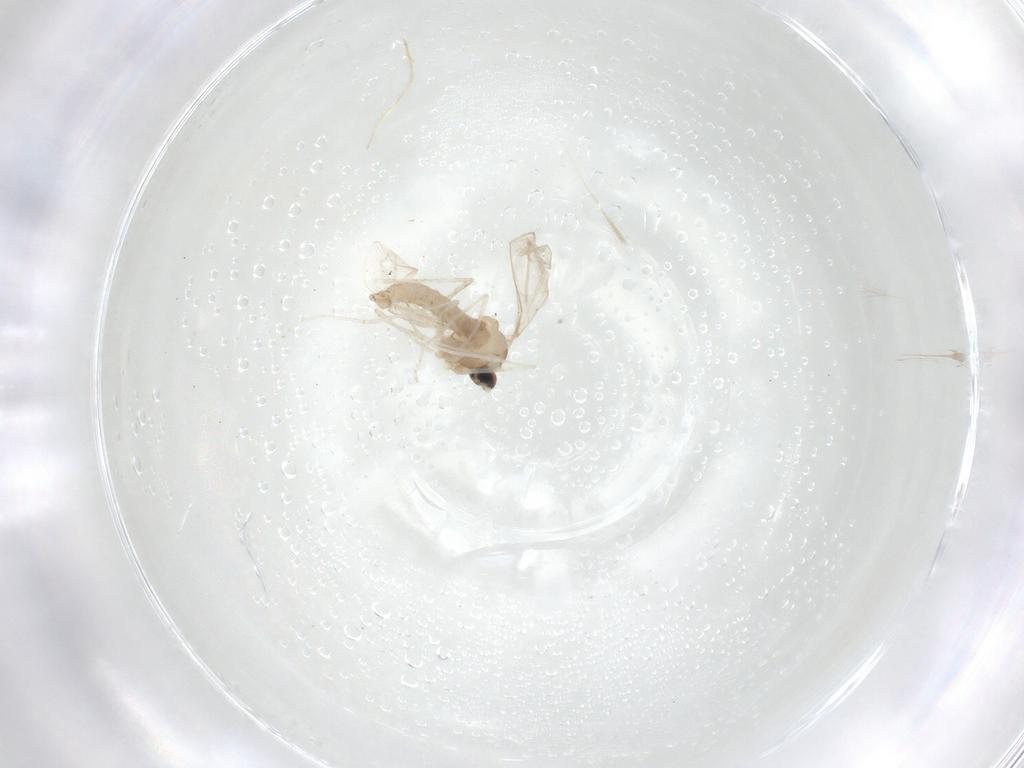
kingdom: Animalia
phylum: Arthropoda
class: Insecta
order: Diptera
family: Cecidomyiidae
